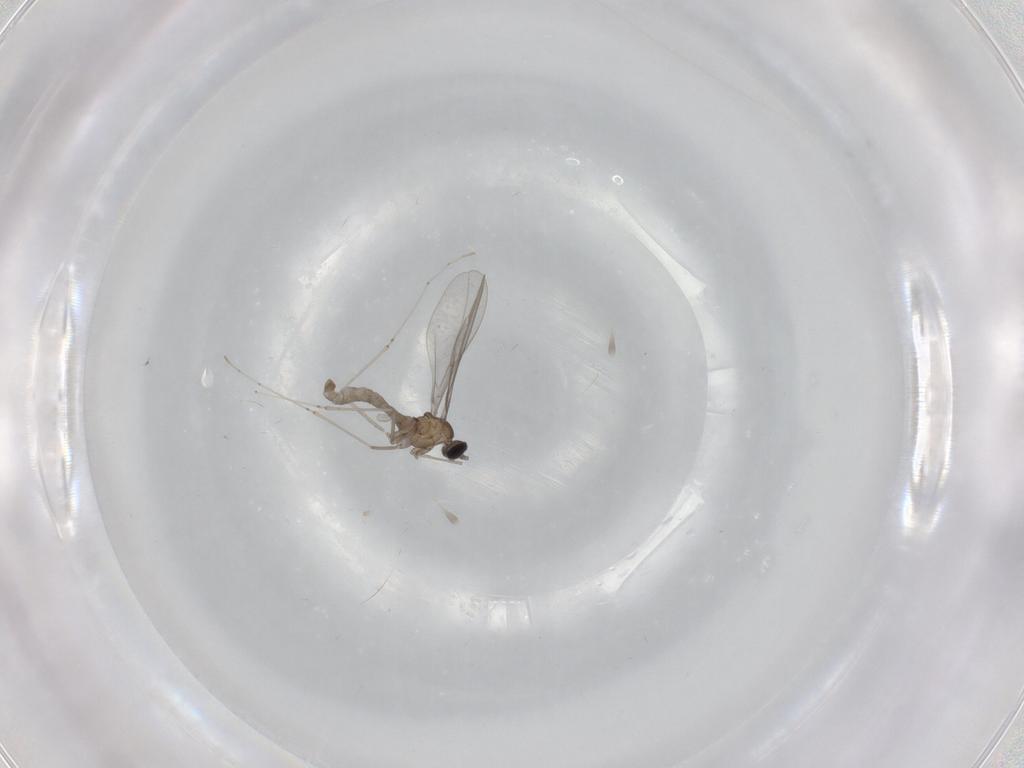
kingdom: Animalia
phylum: Arthropoda
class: Insecta
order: Diptera
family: Cecidomyiidae
